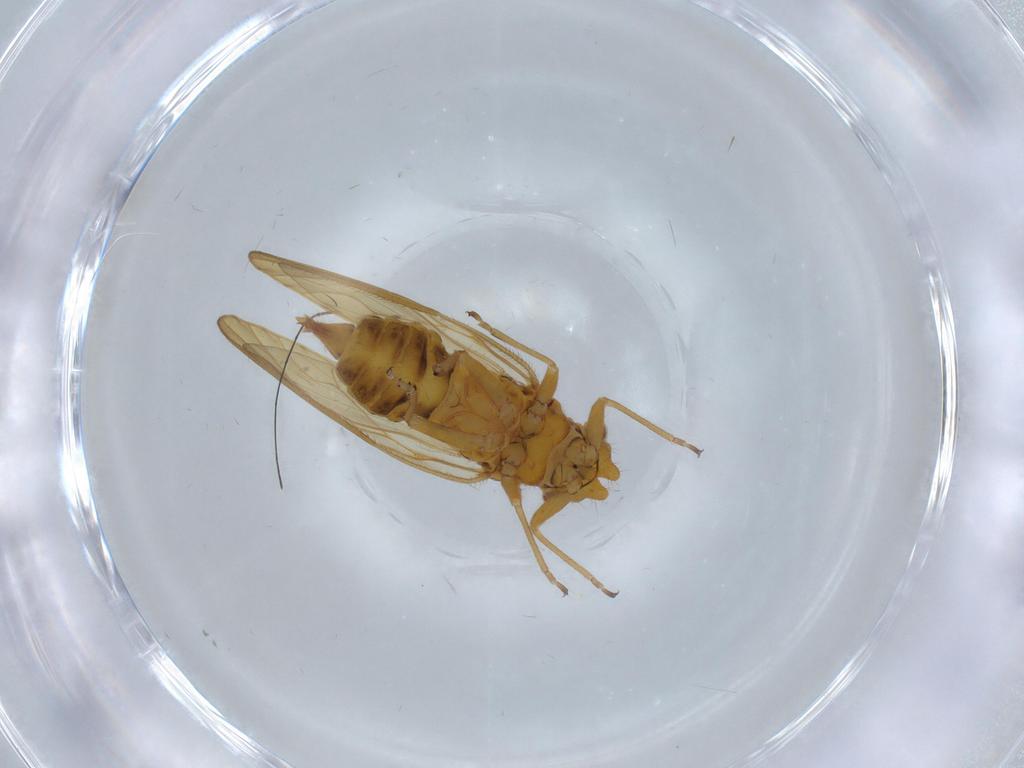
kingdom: Animalia
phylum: Arthropoda
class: Insecta
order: Hemiptera
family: Psyllidae
